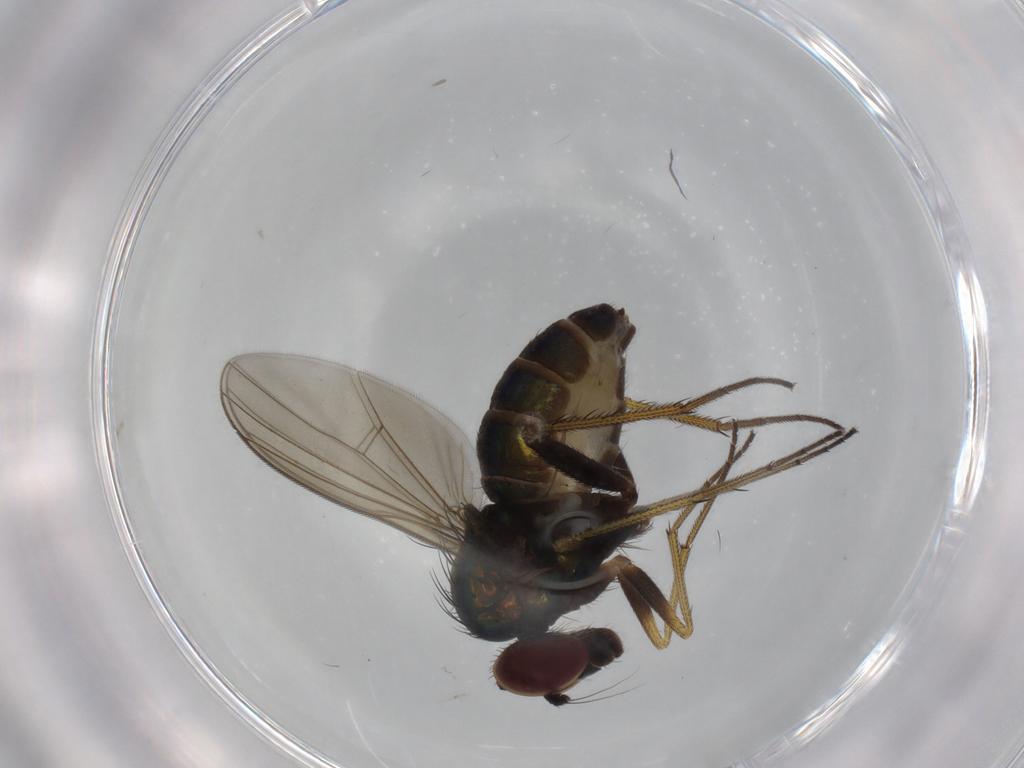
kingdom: Animalia
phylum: Arthropoda
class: Insecta
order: Diptera
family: Dolichopodidae
